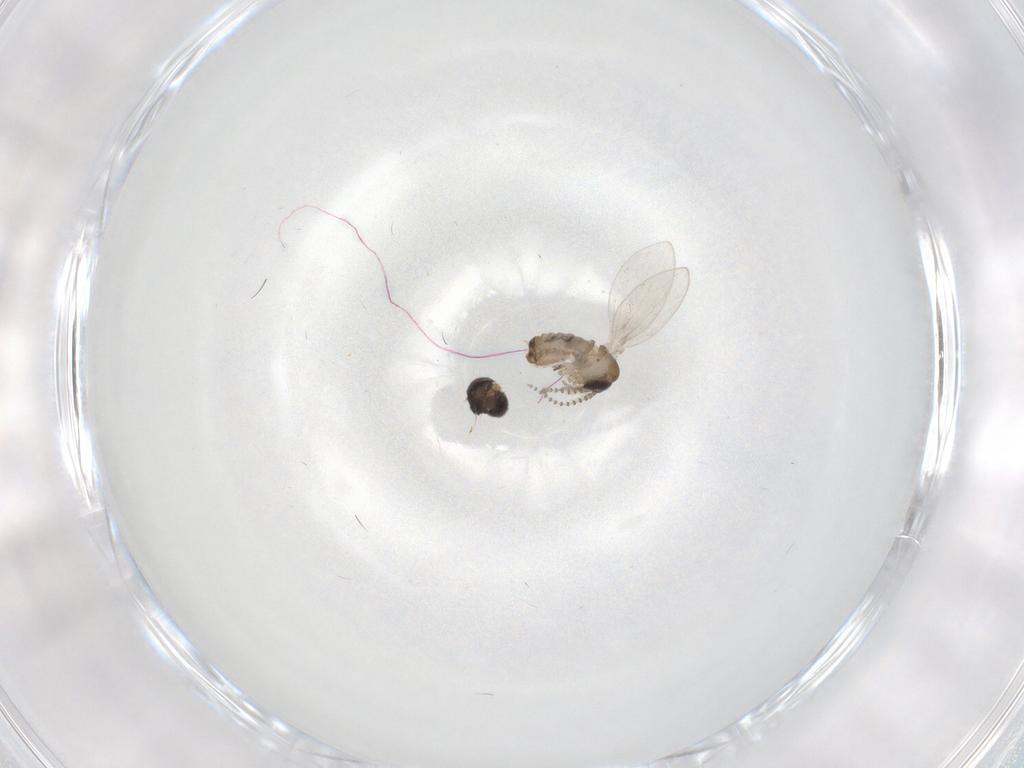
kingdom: Animalia
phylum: Arthropoda
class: Insecta
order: Diptera
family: Psychodidae
